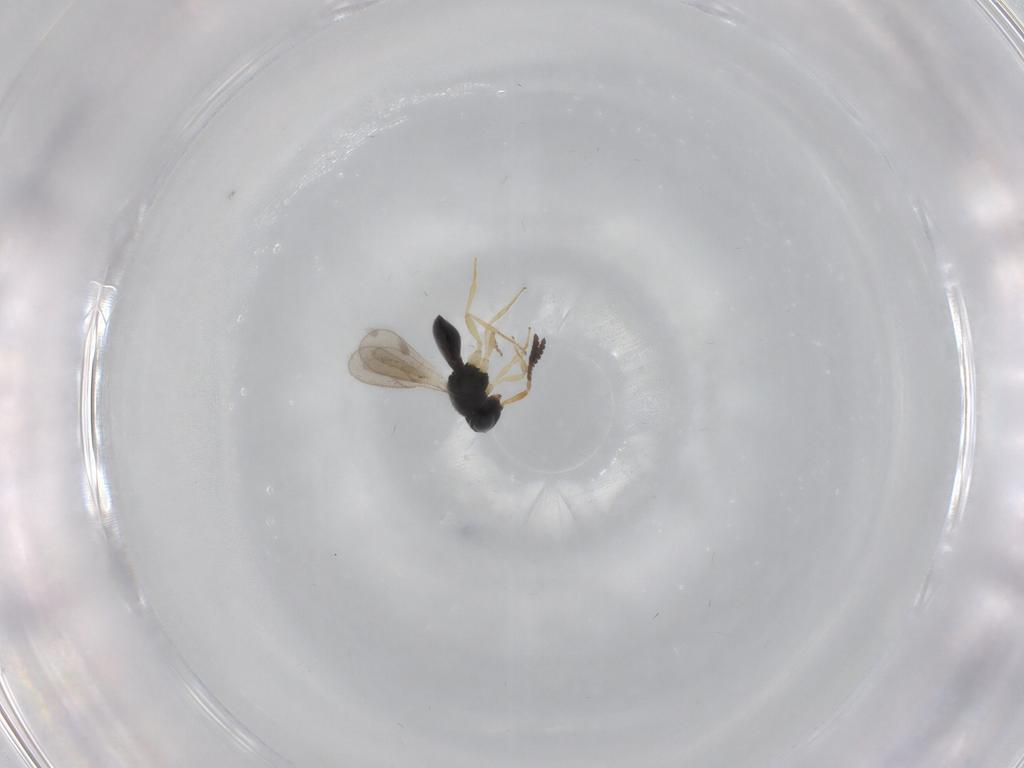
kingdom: Animalia
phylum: Arthropoda
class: Insecta
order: Hymenoptera
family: Scelionidae
